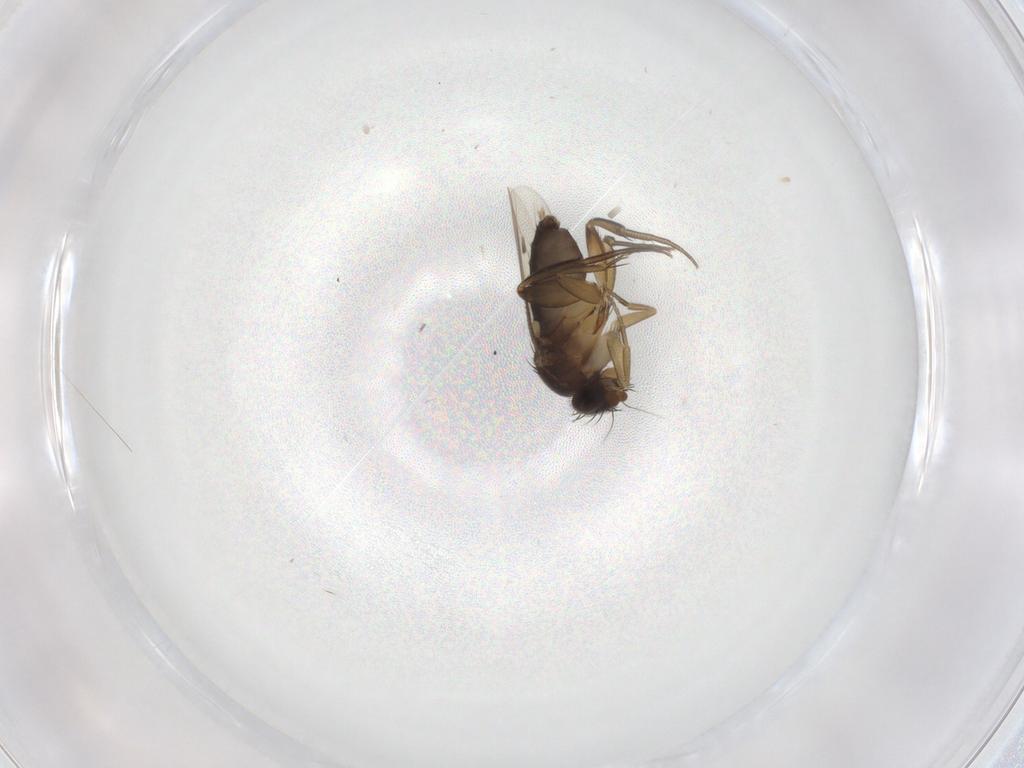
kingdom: Animalia
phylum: Arthropoda
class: Insecta
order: Diptera
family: Phoridae
